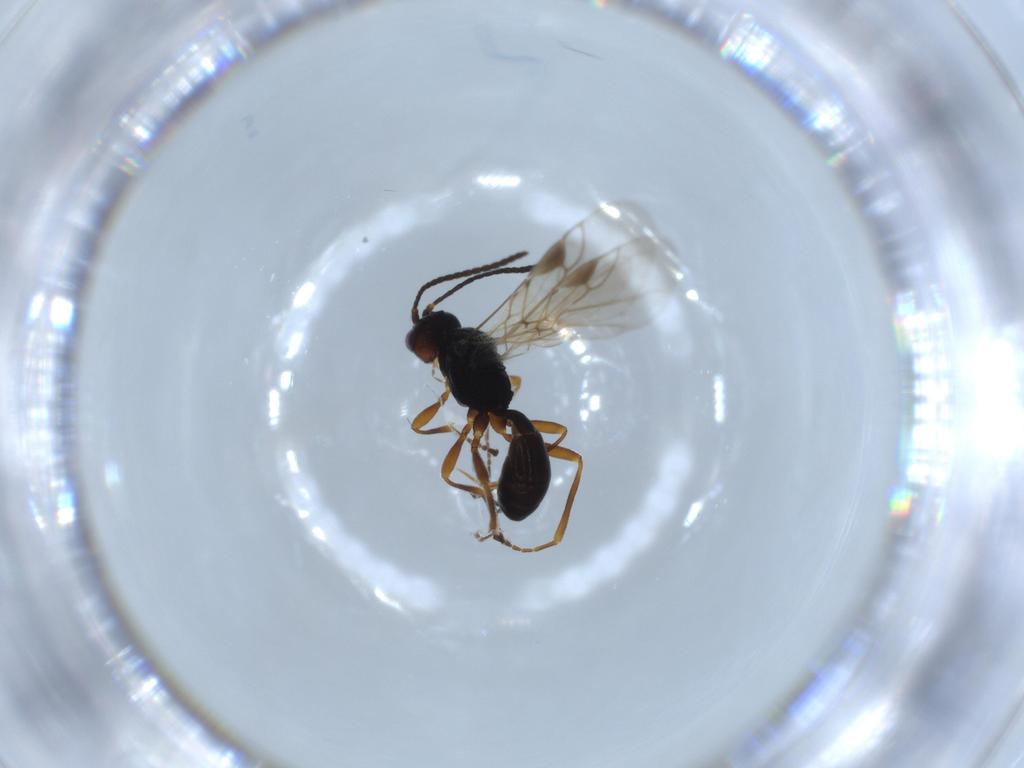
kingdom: Animalia
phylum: Arthropoda
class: Insecta
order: Hymenoptera
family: Braconidae
